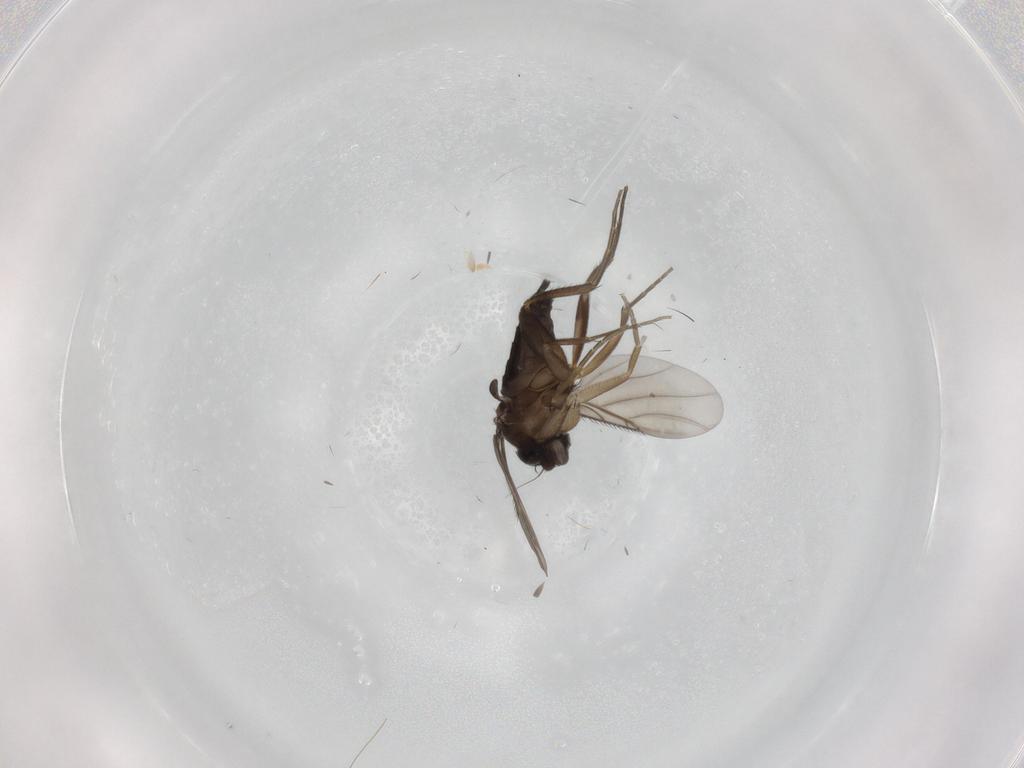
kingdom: Animalia
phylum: Arthropoda
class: Insecta
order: Diptera
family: Phoridae
